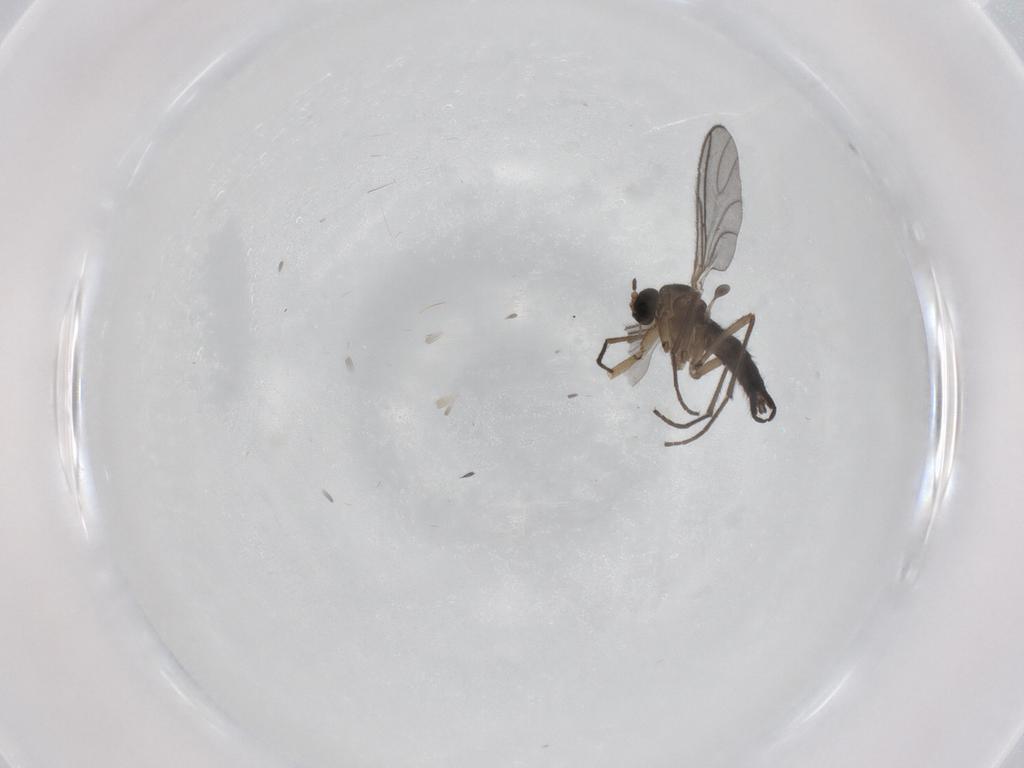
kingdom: Animalia
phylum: Arthropoda
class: Insecta
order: Diptera
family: Sciaridae
